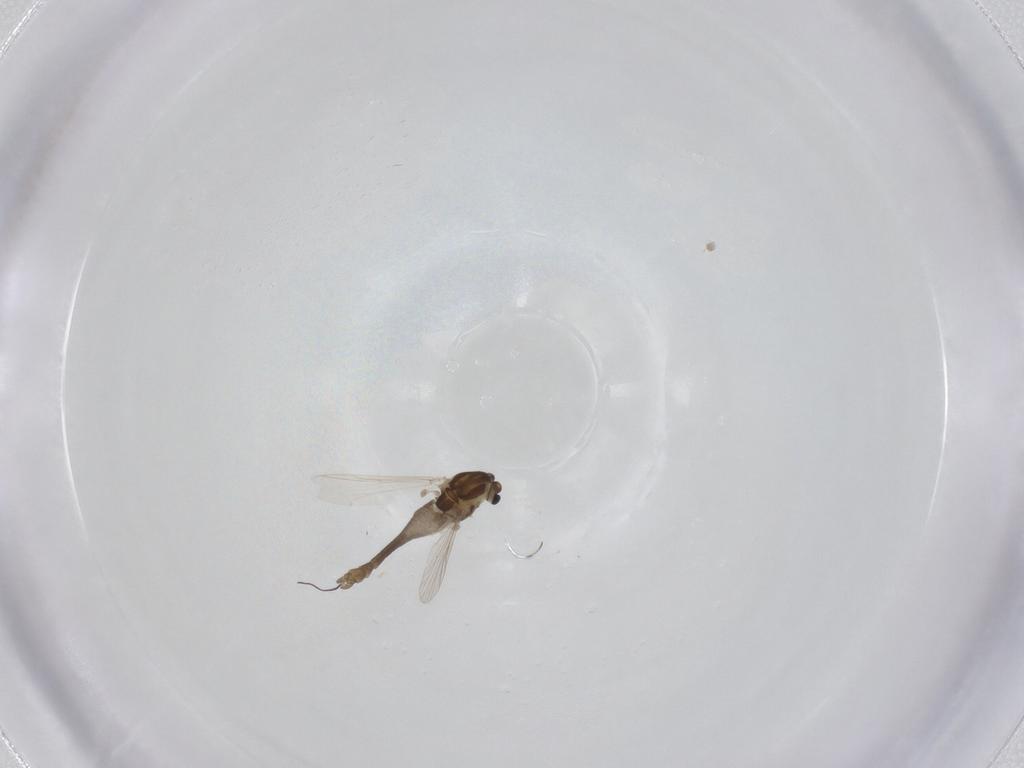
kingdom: Animalia
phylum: Arthropoda
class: Insecta
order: Diptera
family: Chironomidae
